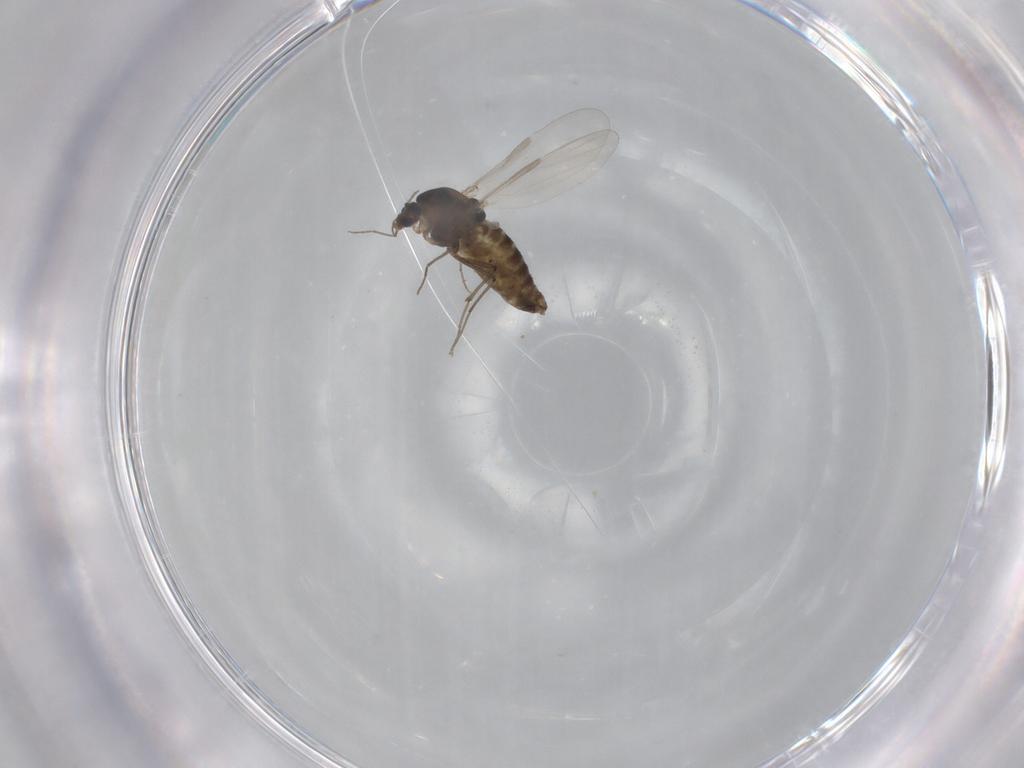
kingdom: Animalia
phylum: Arthropoda
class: Insecta
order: Diptera
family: Chironomidae
